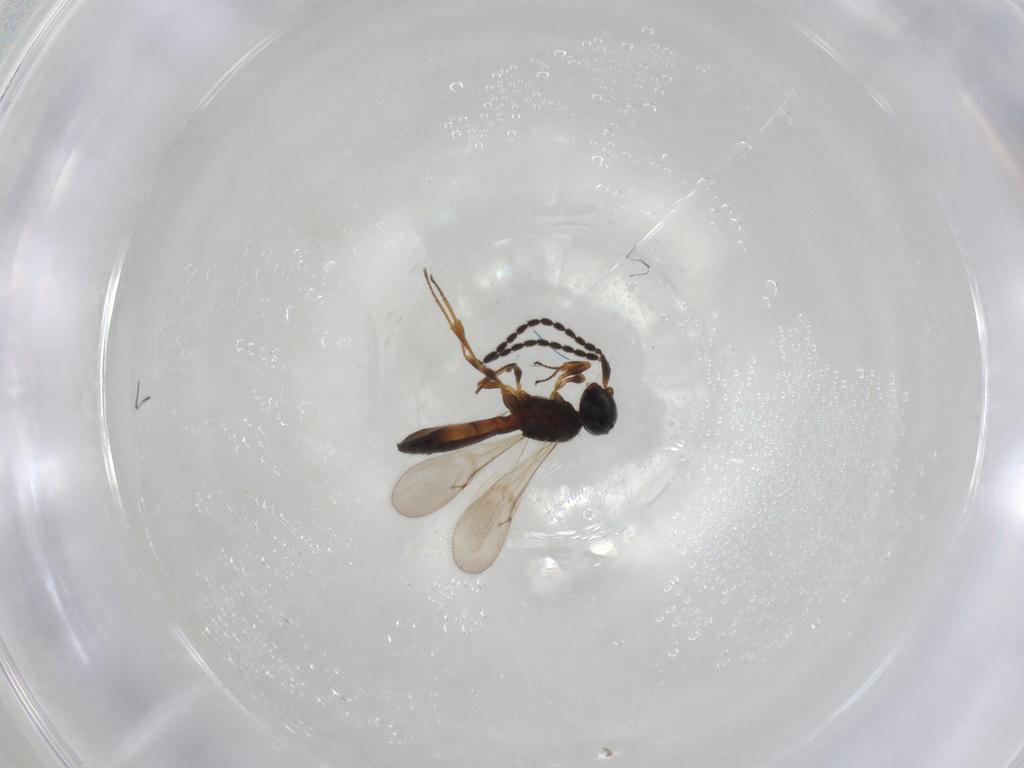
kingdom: Animalia
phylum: Arthropoda
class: Insecta
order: Hymenoptera
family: Scelionidae
